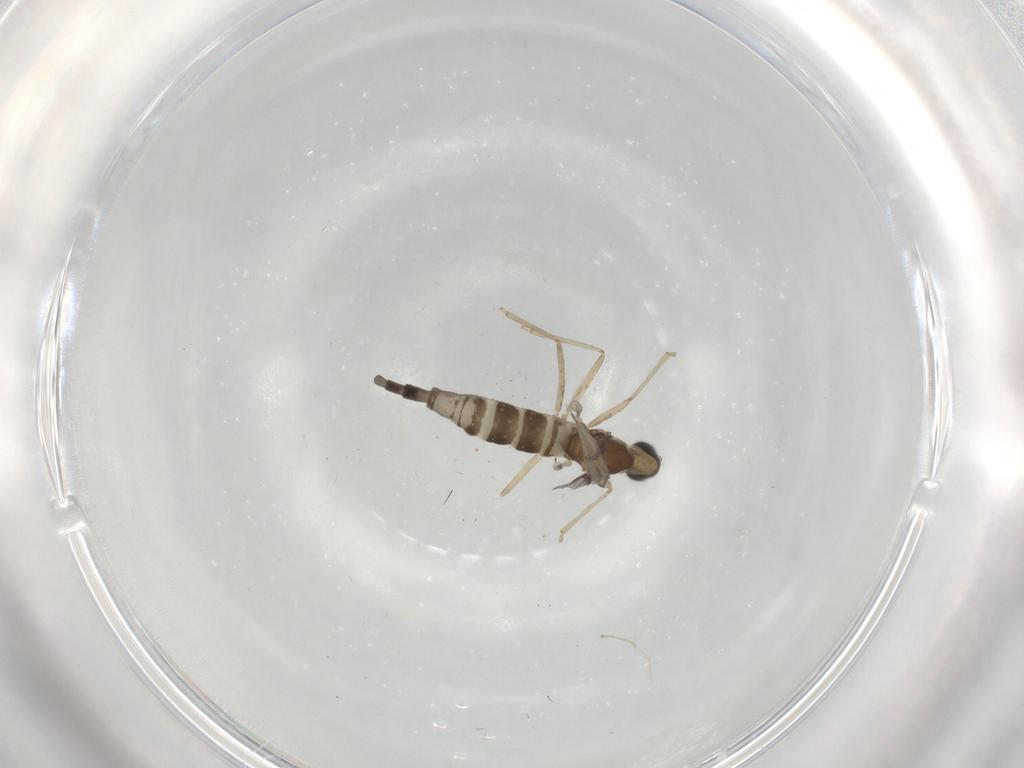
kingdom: Animalia
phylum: Arthropoda
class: Insecta
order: Diptera
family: Cecidomyiidae
